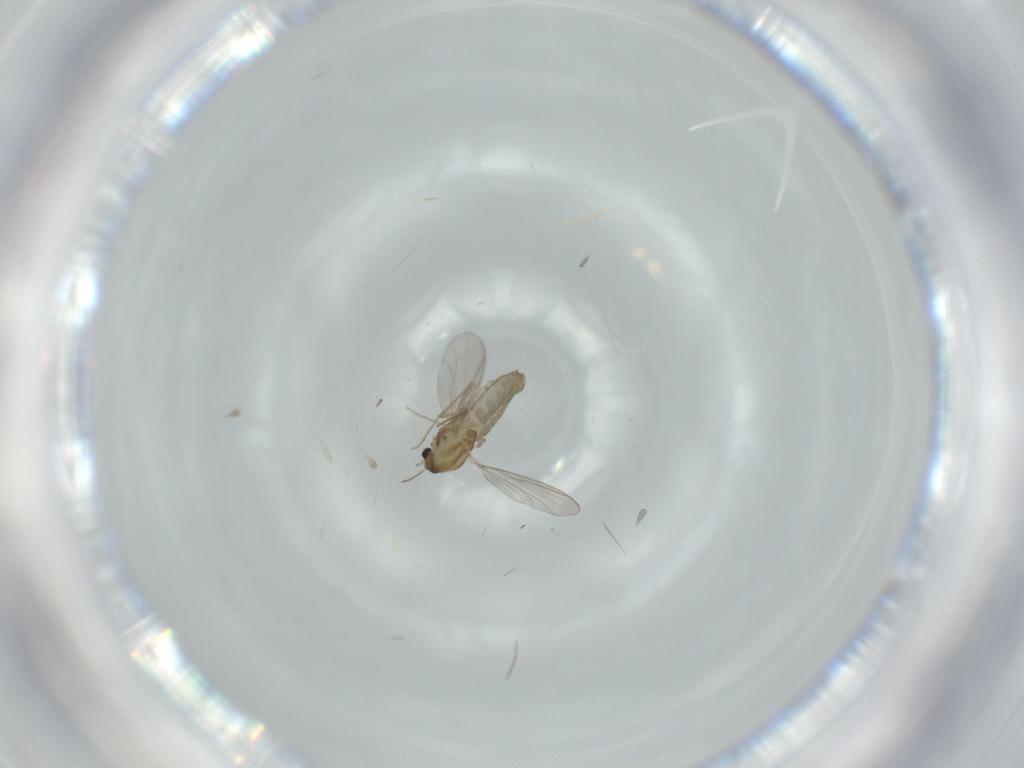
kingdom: Animalia
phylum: Arthropoda
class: Insecta
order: Diptera
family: Chironomidae
